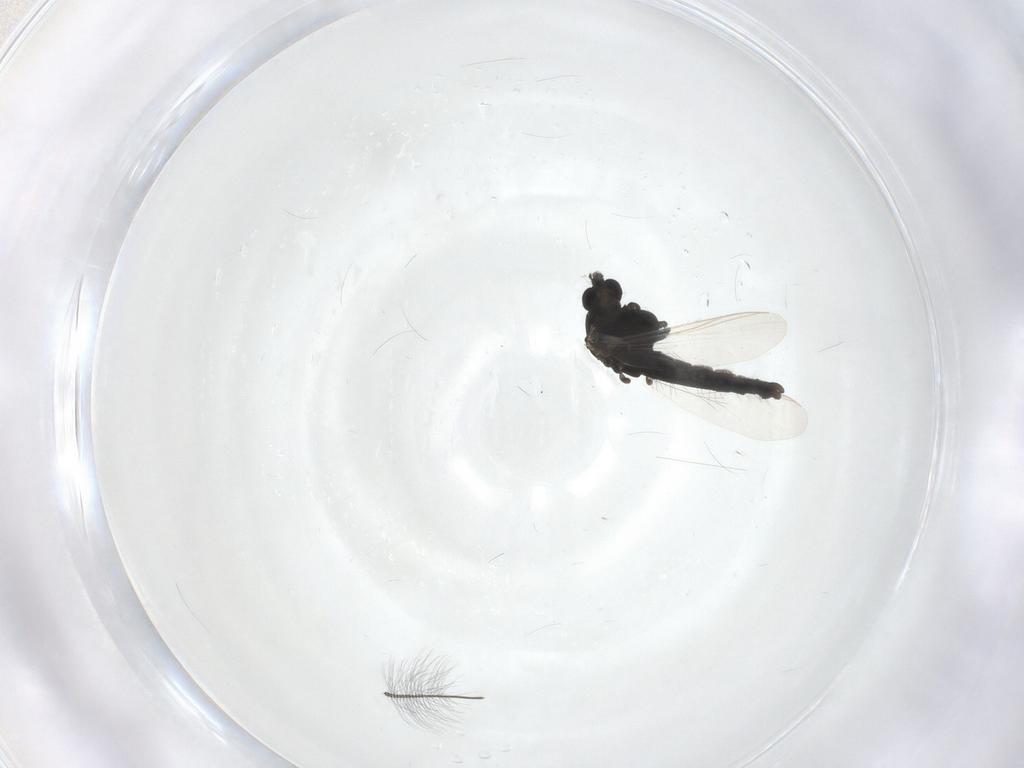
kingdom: Animalia
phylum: Arthropoda
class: Insecta
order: Diptera
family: Chironomidae
